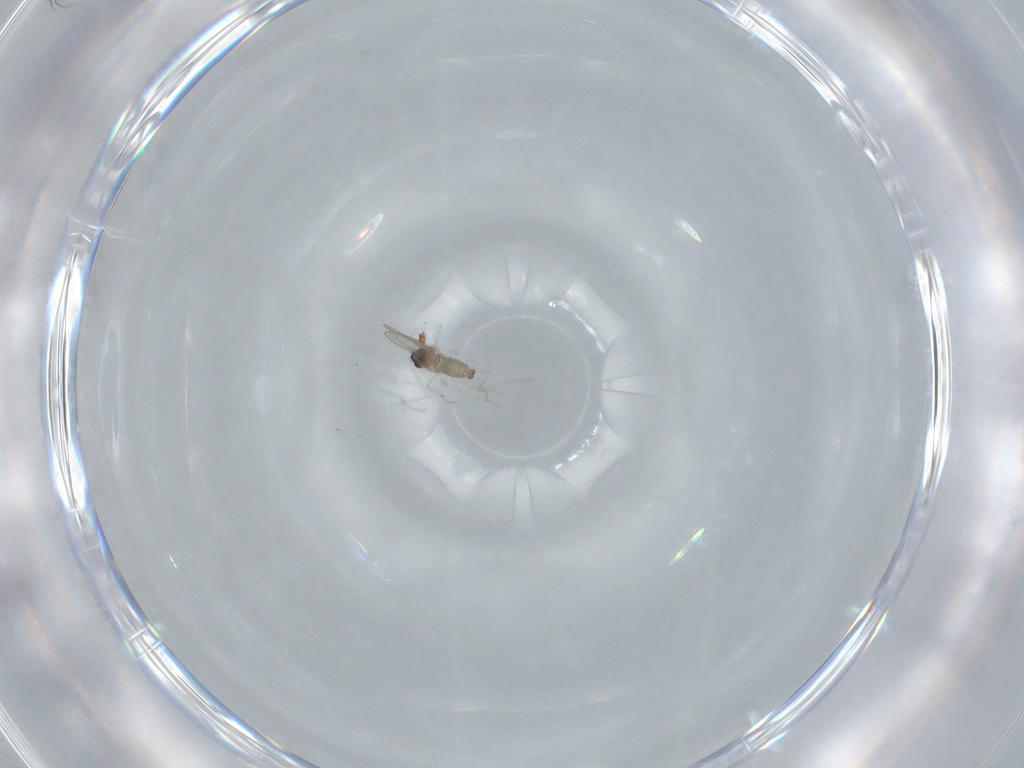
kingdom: Animalia
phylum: Arthropoda
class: Insecta
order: Diptera
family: Cecidomyiidae
